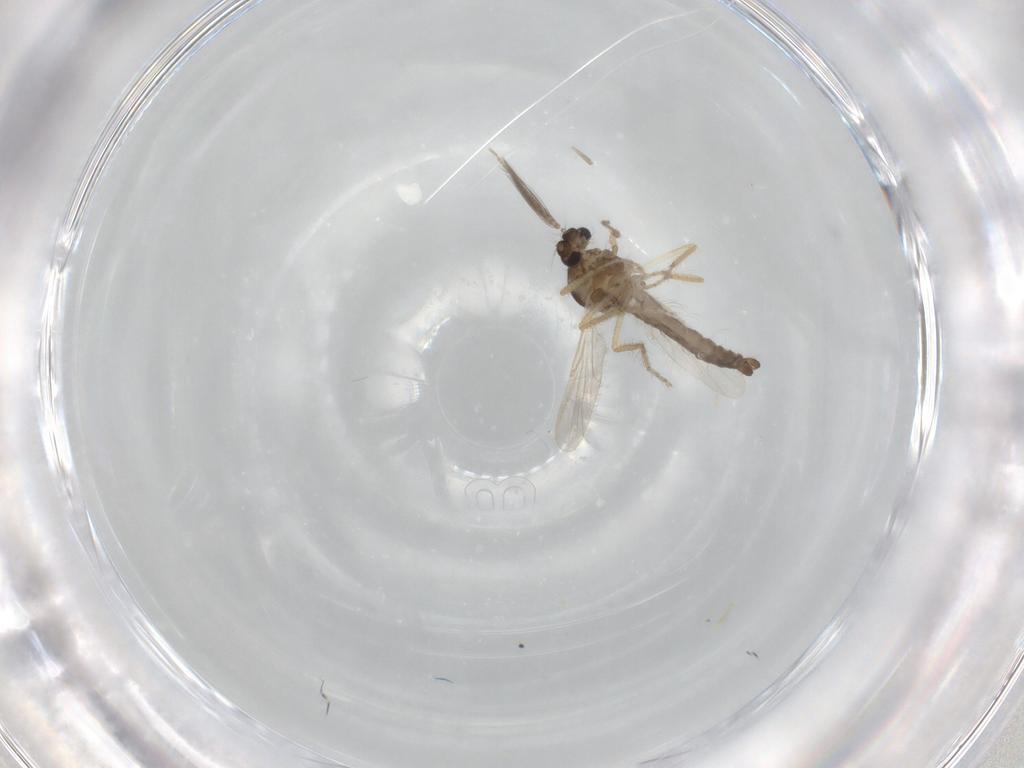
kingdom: Animalia
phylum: Arthropoda
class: Insecta
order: Diptera
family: Ceratopogonidae
